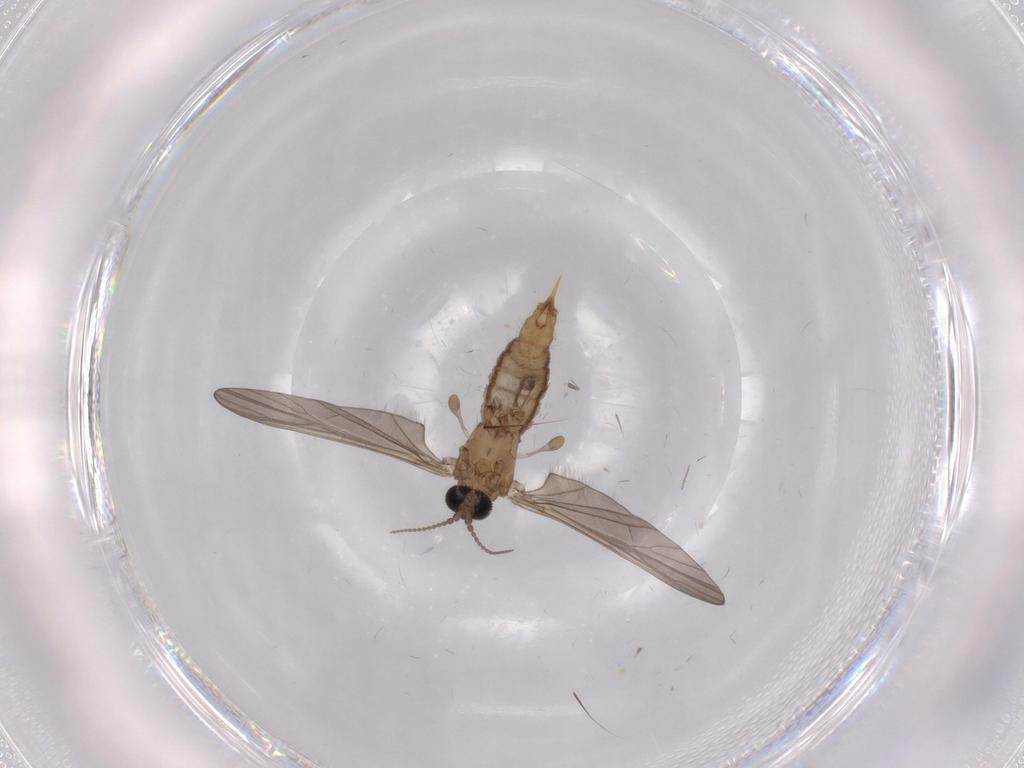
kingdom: Animalia
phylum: Arthropoda
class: Insecta
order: Diptera
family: Limoniidae
